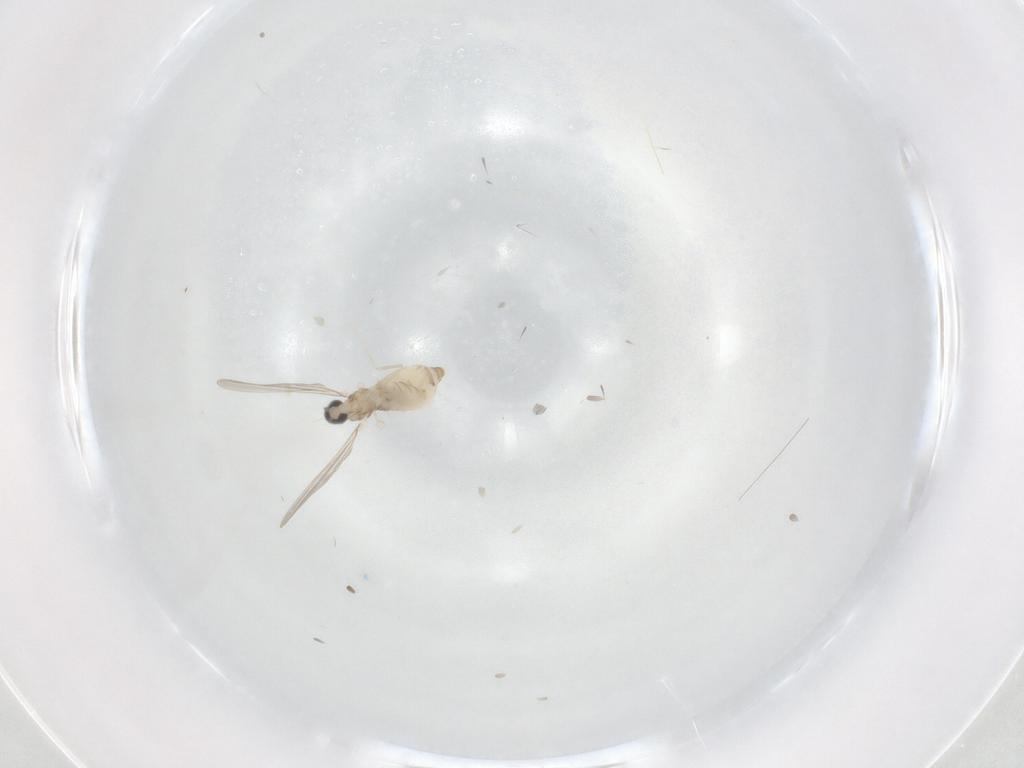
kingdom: Animalia
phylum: Arthropoda
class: Insecta
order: Diptera
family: Cecidomyiidae
